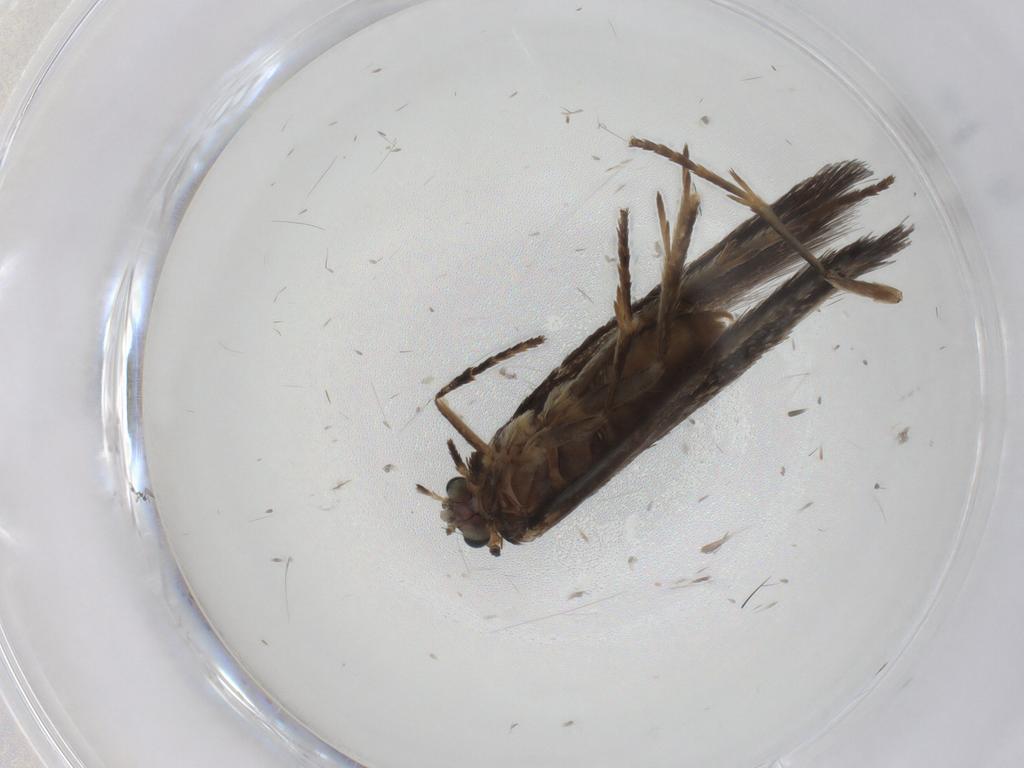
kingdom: Animalia
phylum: Arthropoda
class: Insecta
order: Lepidoptera
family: Nepticulidae
